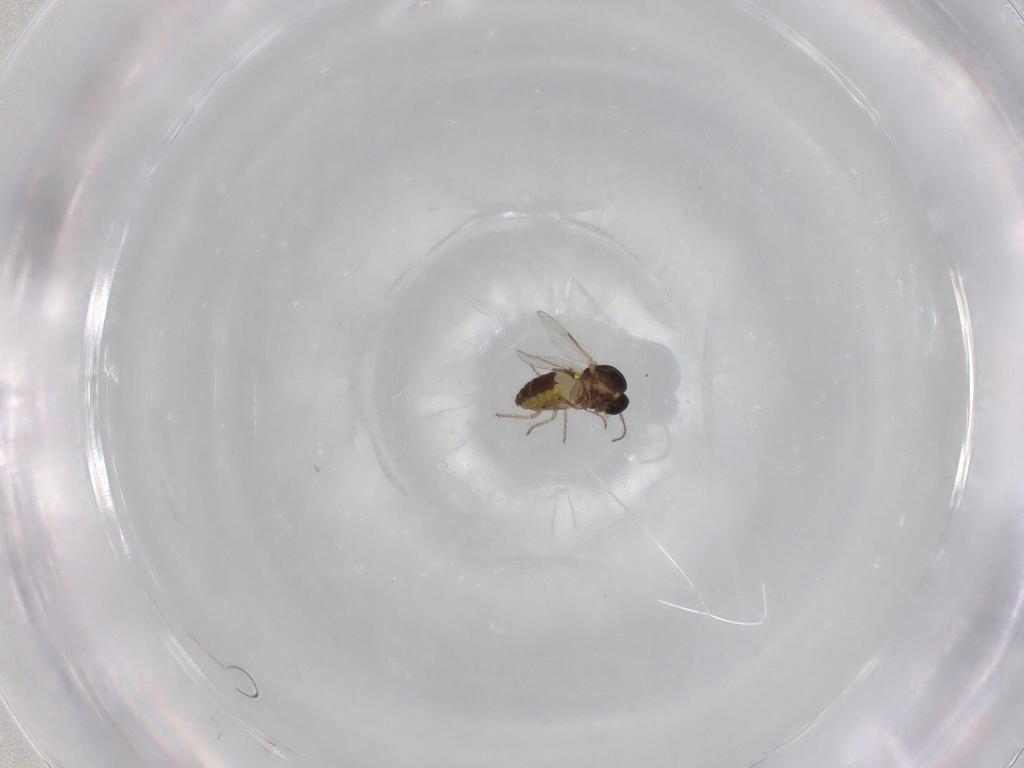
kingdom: Animalia
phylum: Arthropoda
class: Insecta
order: Diptera
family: Ceratopogonidae
